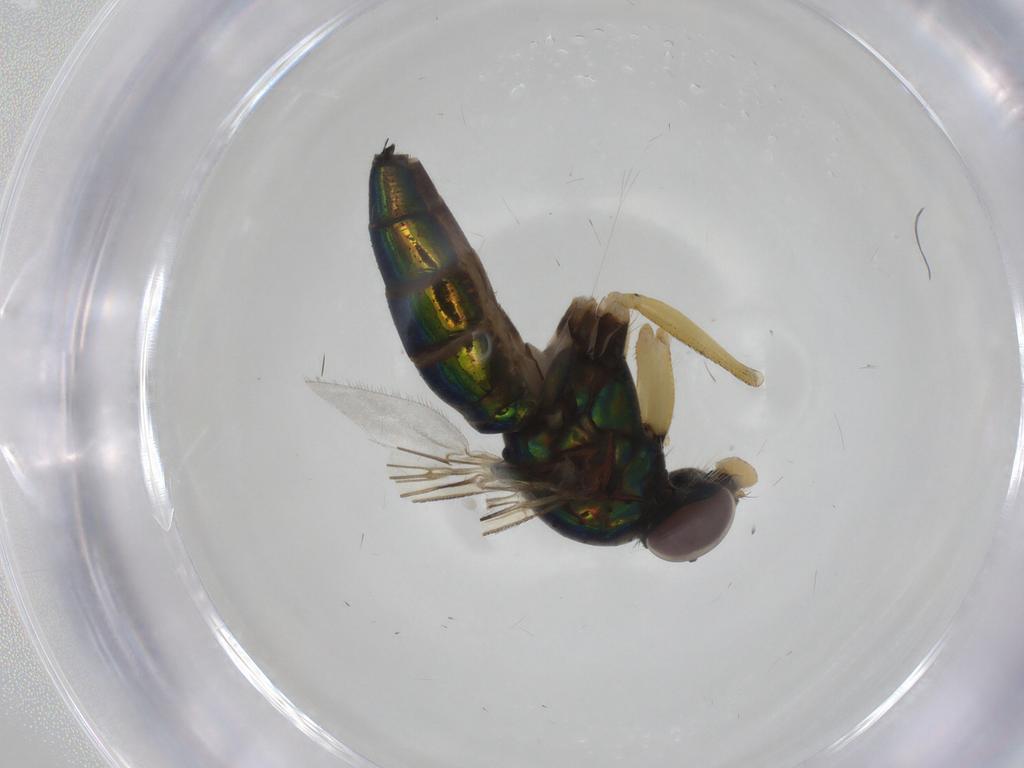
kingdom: Animalia
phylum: Arthropoda
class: Insecta
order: Diptera
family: Dolichopodidae
